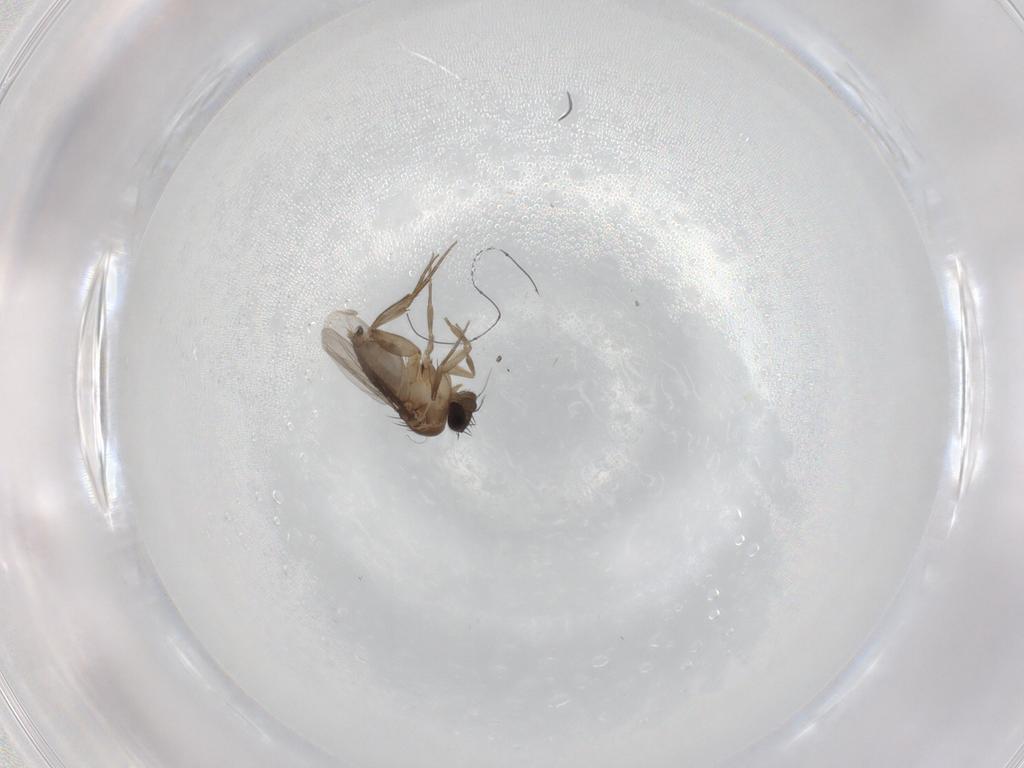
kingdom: Animalia
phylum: Arthropoda
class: Insecta
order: Diptera
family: Phoridae
